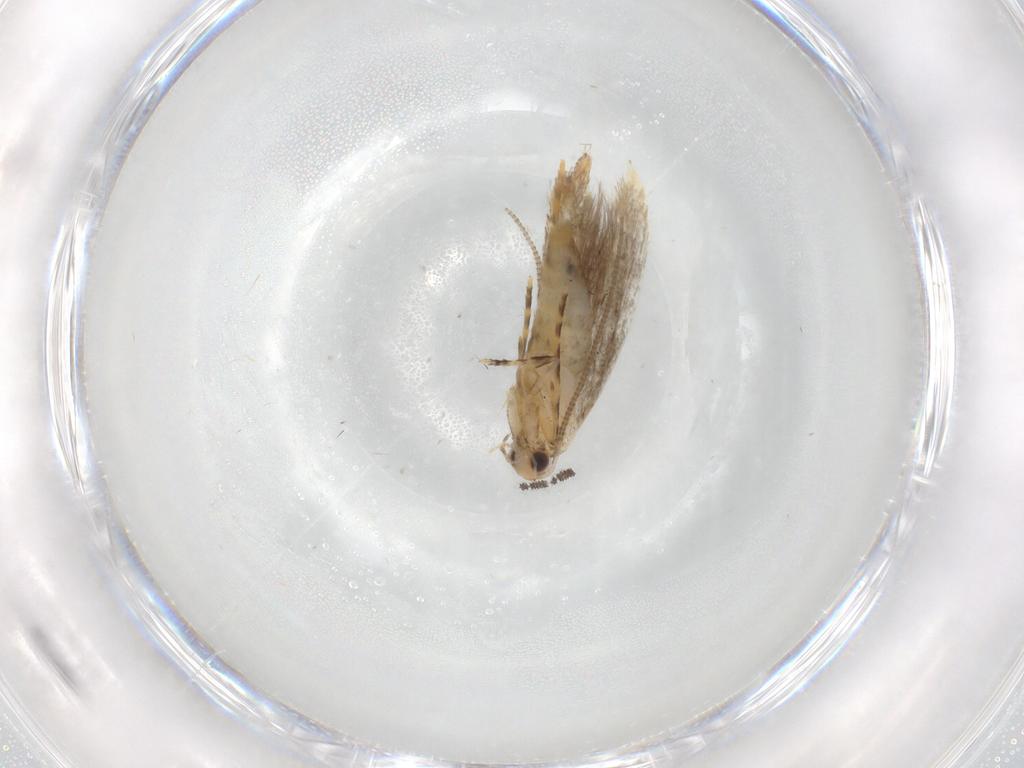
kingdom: Animalia
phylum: Arthropoda
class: Insecta
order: Lepidoptera
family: Tineidae
